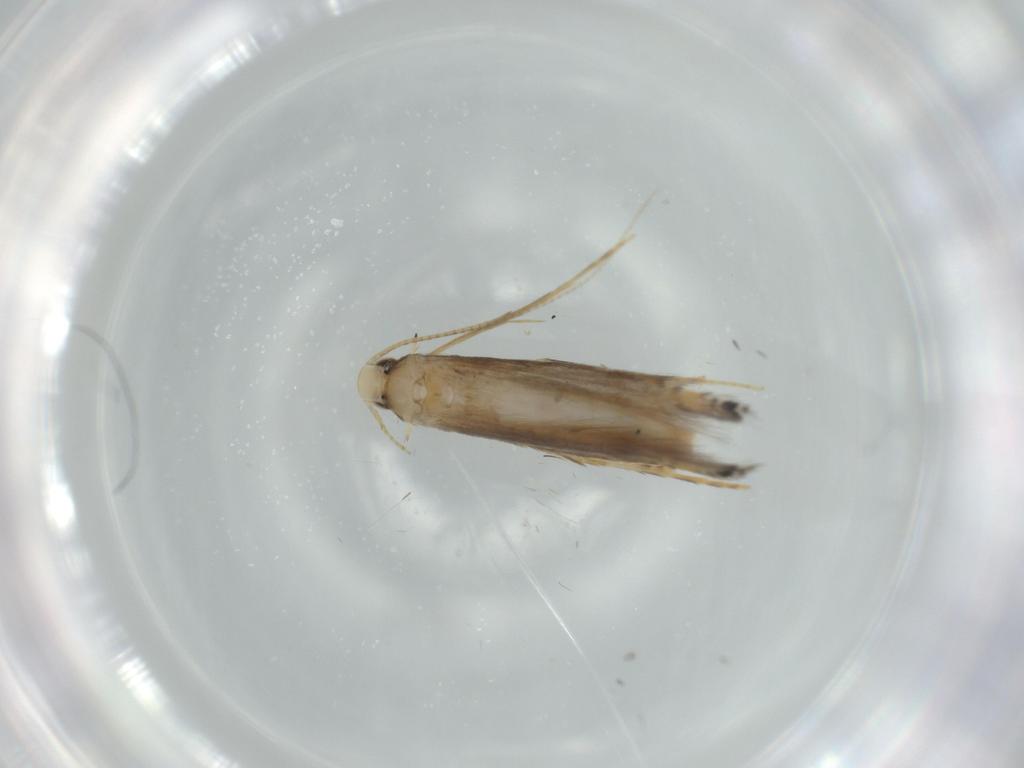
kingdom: Animalia
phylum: Arthropoda
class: Insecta
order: Lepidoptera
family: Gracillariidae
